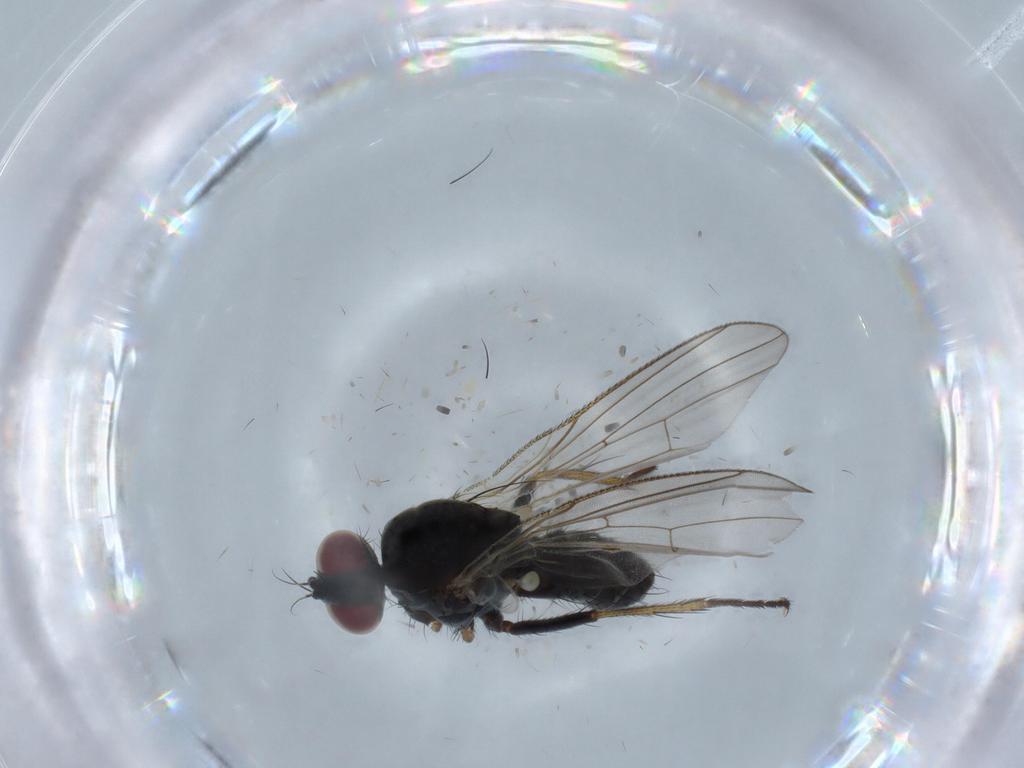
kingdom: Animalia
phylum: Arthropoda
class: Insecta
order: Diptera
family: Muscidae
